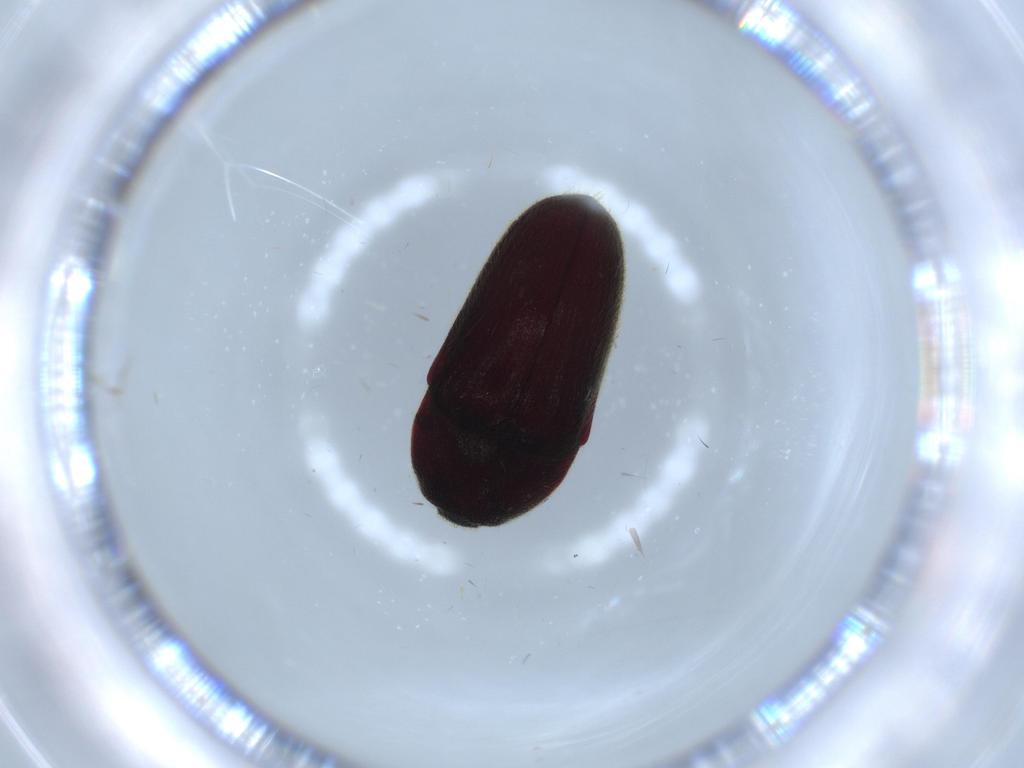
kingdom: Animalia
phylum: Arthropoda
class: Insecta
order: Coleoptera
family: Cantharidae
